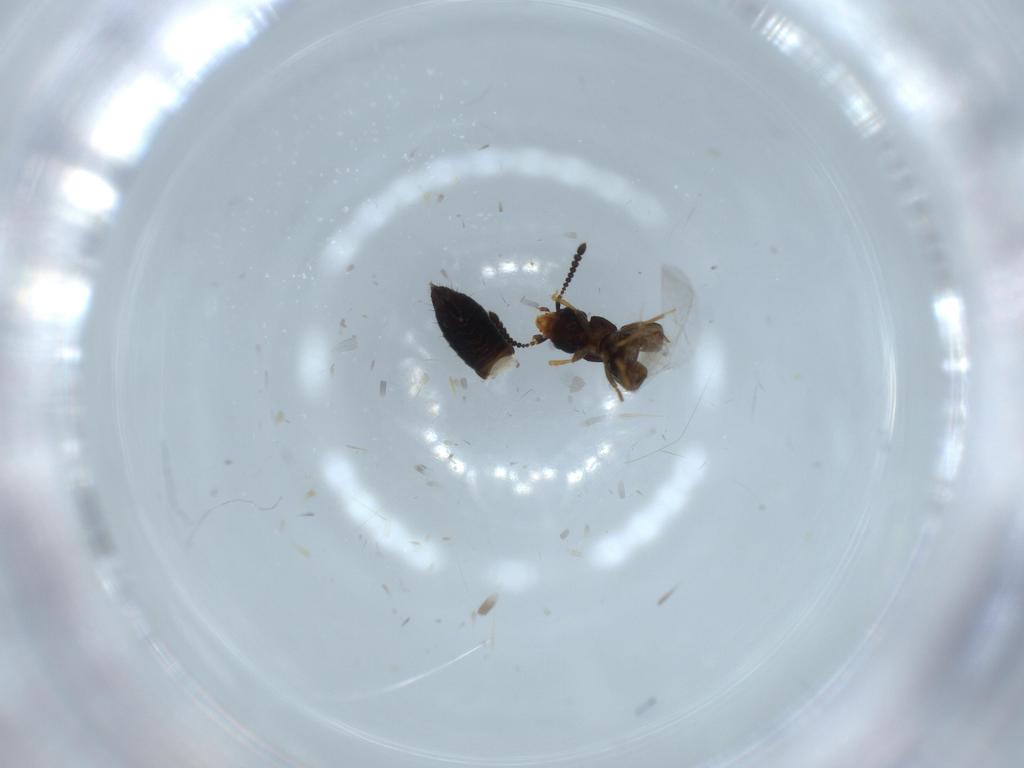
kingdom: Animalia
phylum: Arthropoda
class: Insecta
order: Coleoptera
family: Staphylinidae
